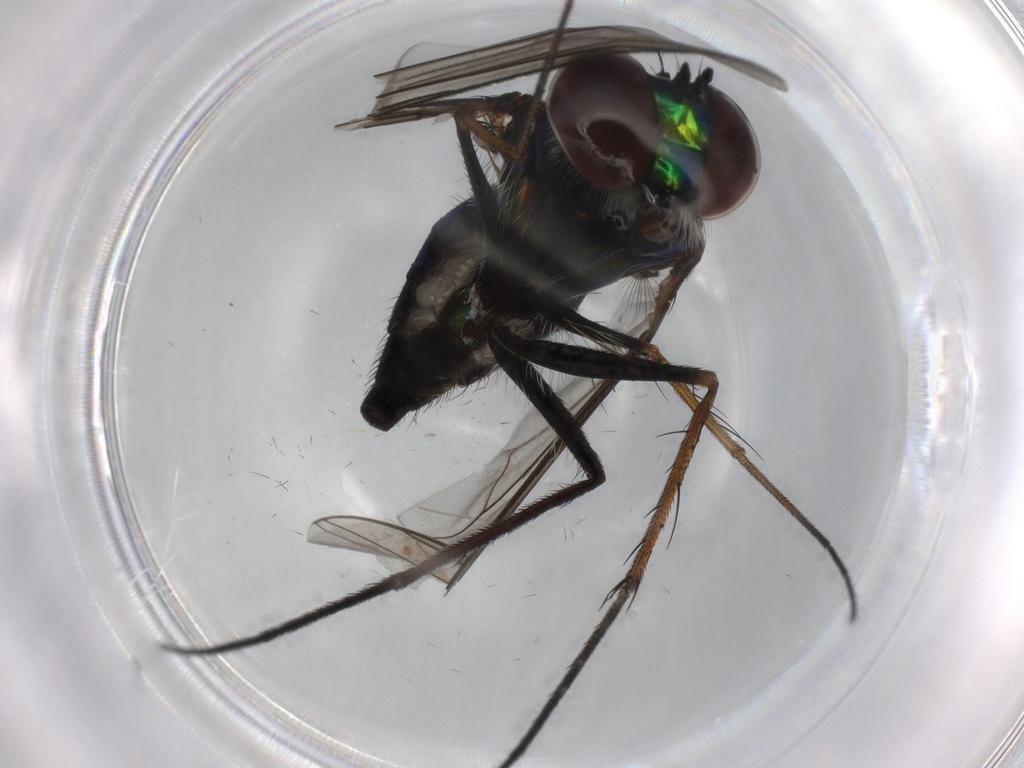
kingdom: Animalia
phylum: Arthropoda
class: Insecta
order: Diptera
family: Dolichopodidae
